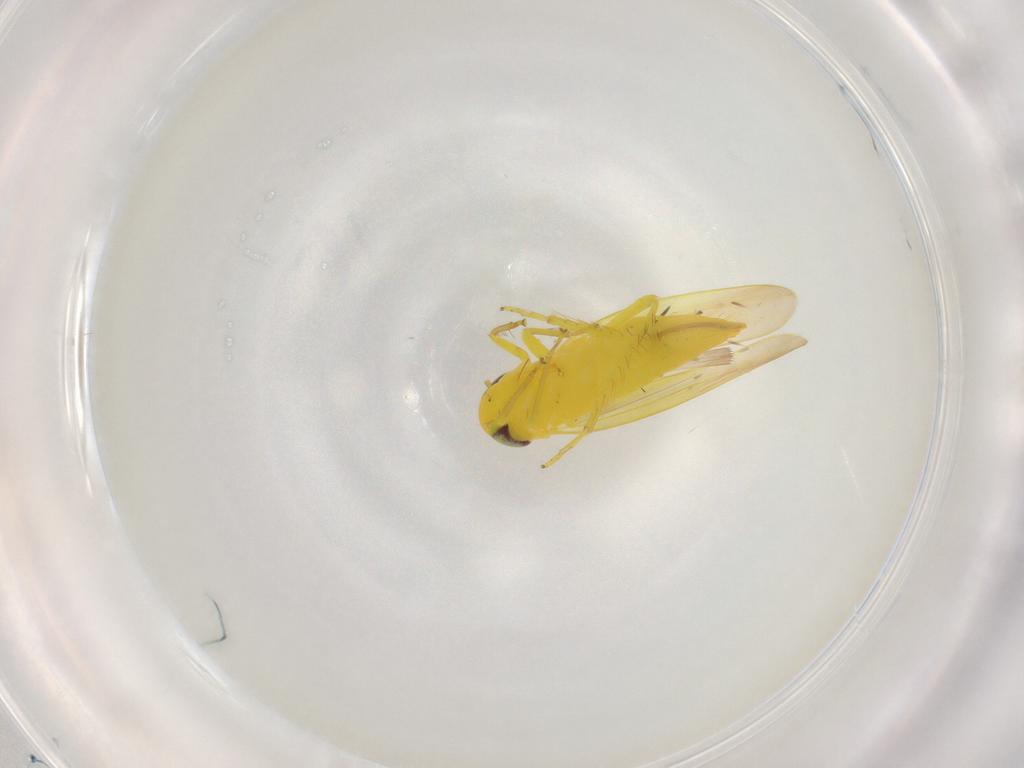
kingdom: Animalia
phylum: Arthropoda
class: Insecta
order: Hemiptera
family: Cicadellidae
